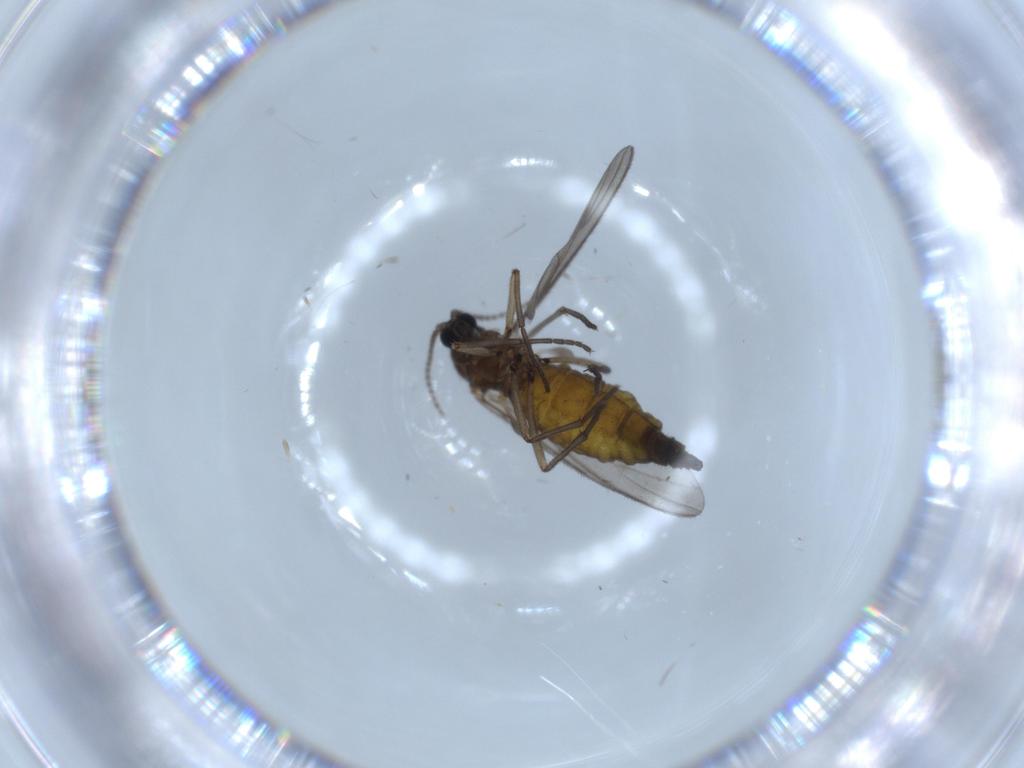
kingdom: Animalia
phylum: Arthropoda
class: Insecta
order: Diptera
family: Sciaridae
